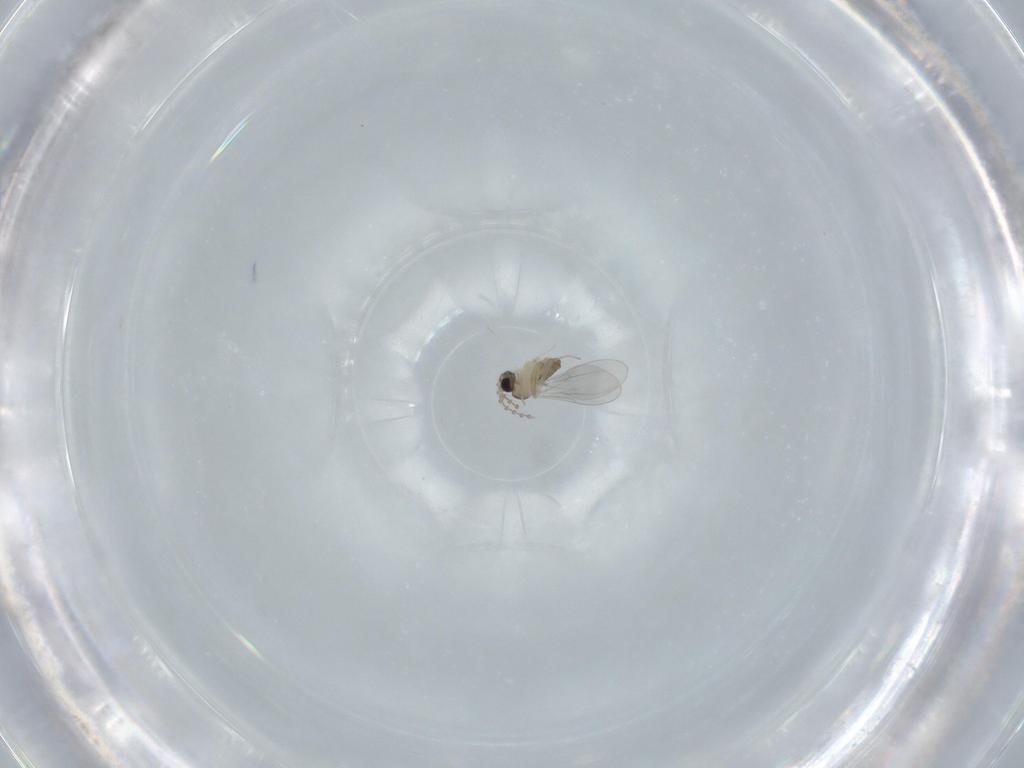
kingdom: Animalia
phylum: Arthropoda
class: Insecta
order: Diptera
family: Cecidomyiidae
